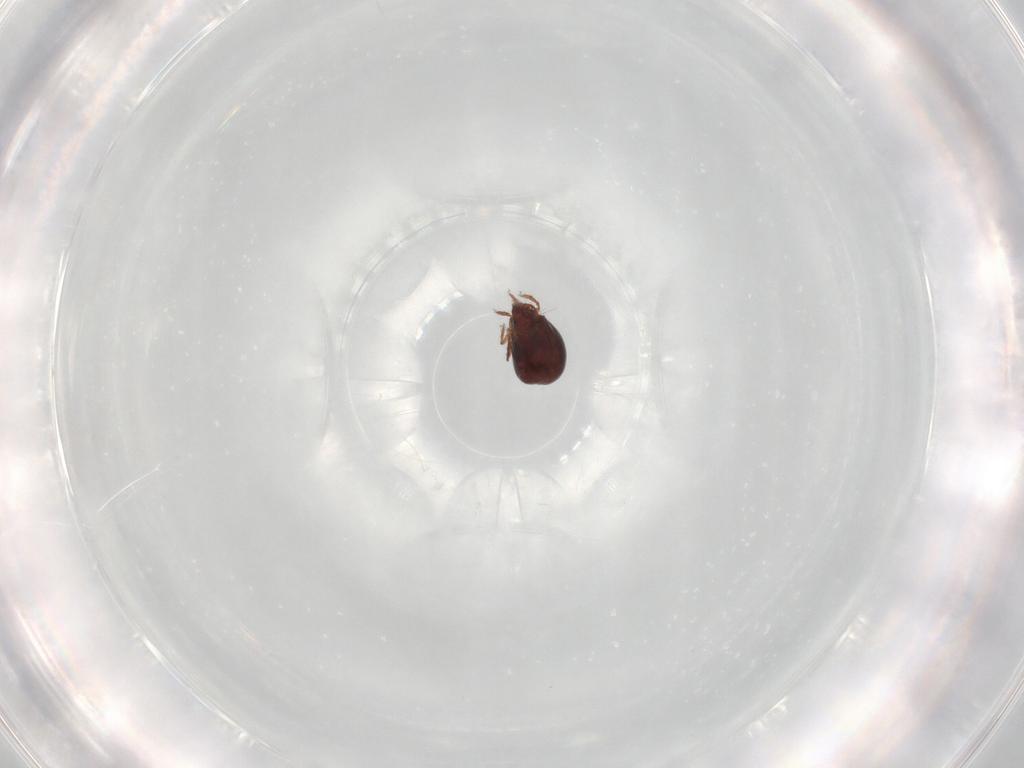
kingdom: Animalia
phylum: Arthropoda
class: Arachnida
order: Sarcoptiformes
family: Humerobatidae
